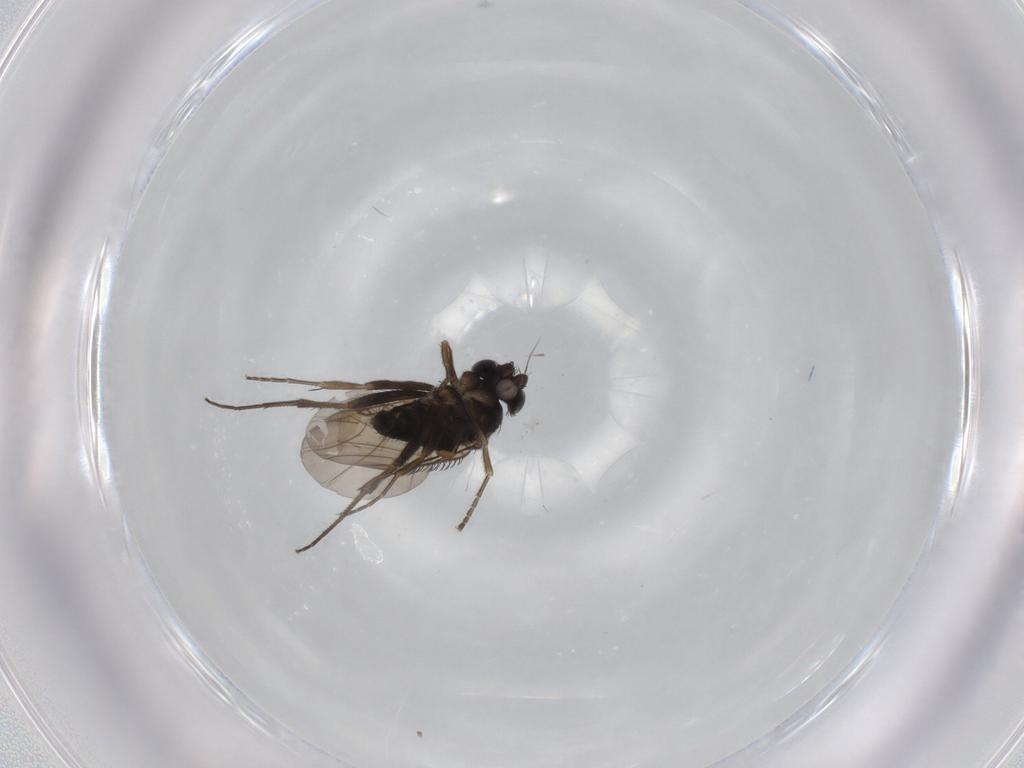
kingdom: Animalia
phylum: Arthropoda
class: Insecta
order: Diptera
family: Phoridae
